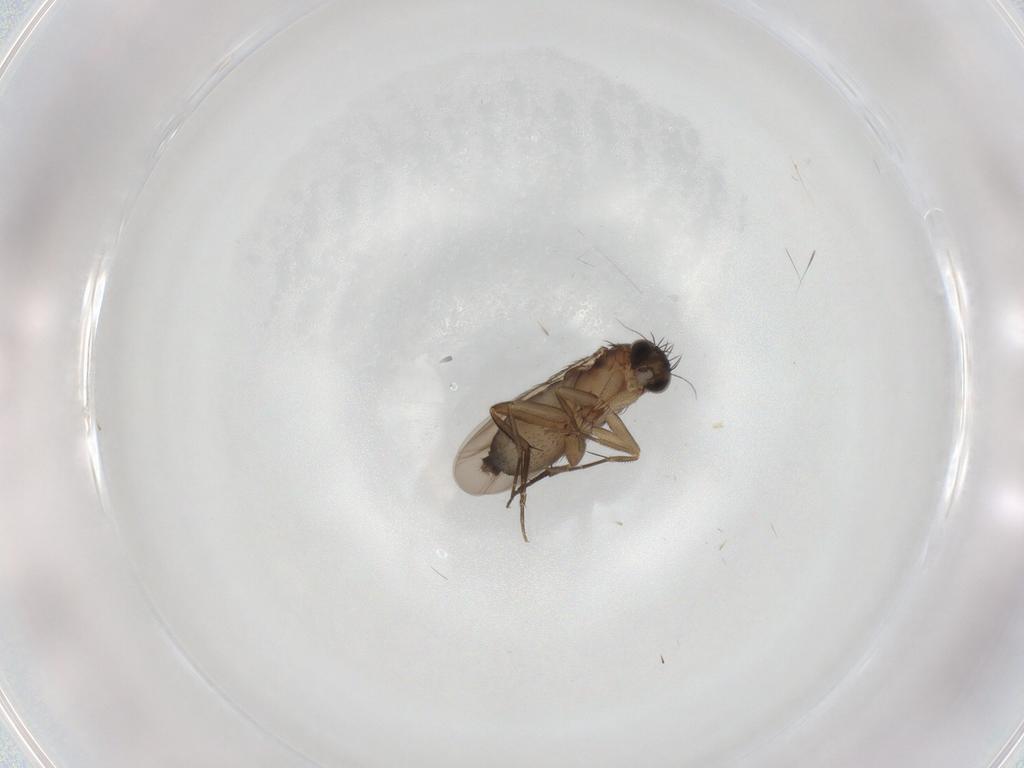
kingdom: Animalia
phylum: Arthropoda
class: Insecta
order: Diptera
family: Phoridae
